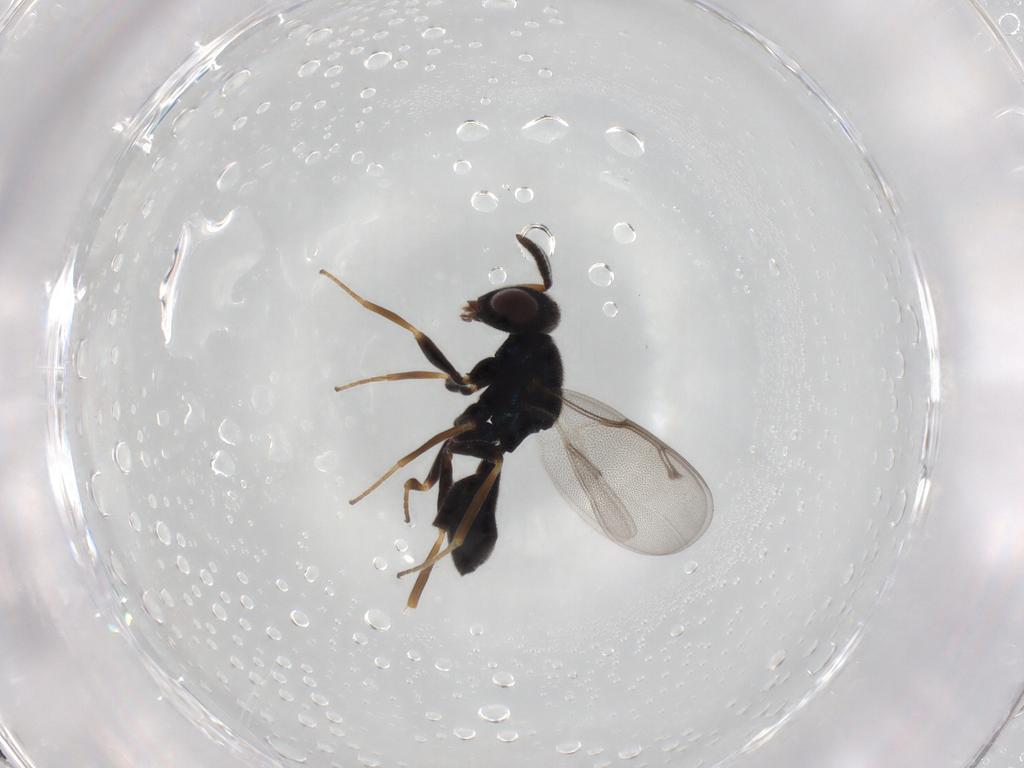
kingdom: Animalia
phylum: Arthropoda
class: Insecta
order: Hymenoptera
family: Pteromalidae
